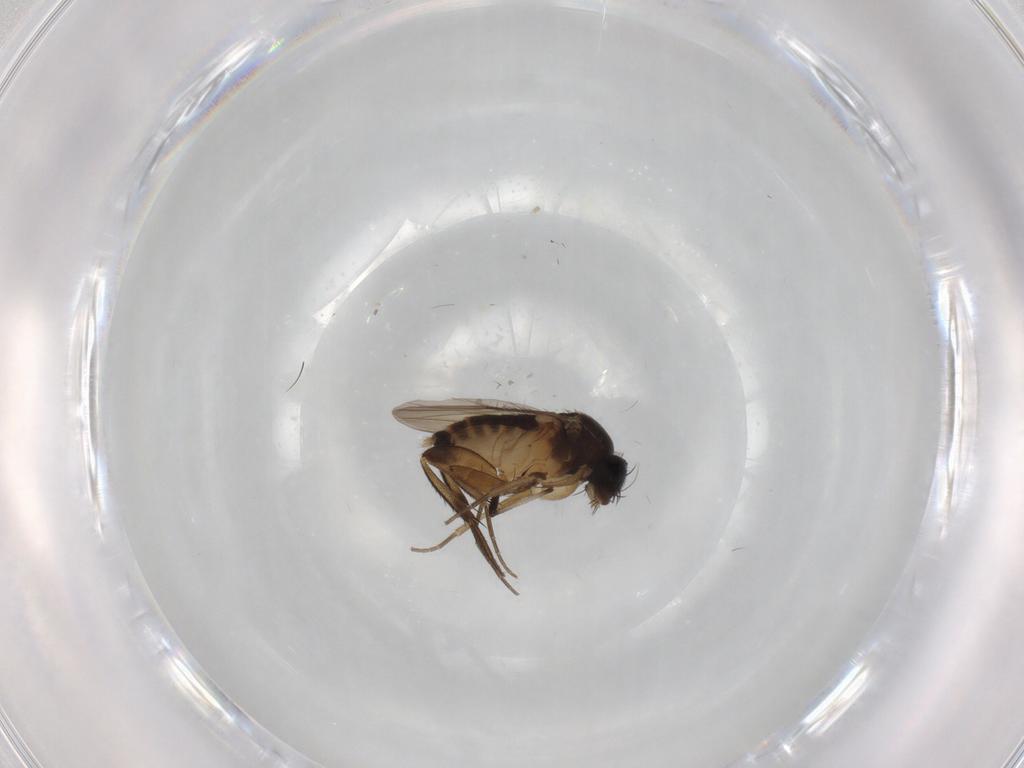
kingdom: Animalia
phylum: Arthropoda
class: Insecta
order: Diptera
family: Phoridae
